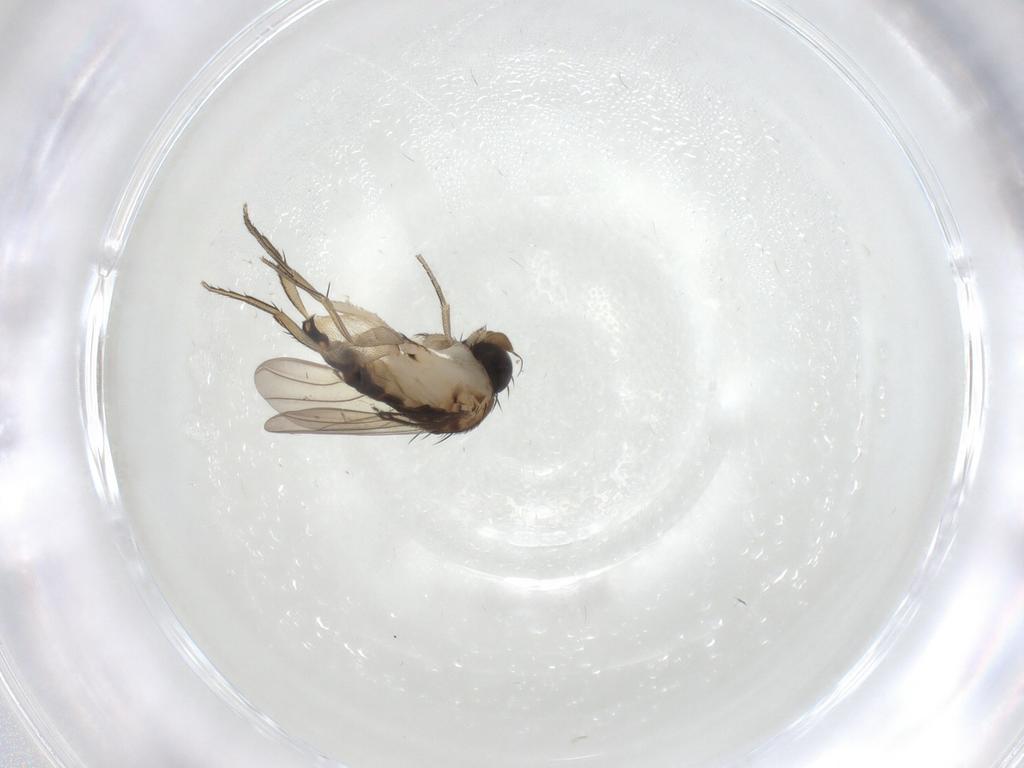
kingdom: Animalia
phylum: Arthropoda
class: Insecta
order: Diptera
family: Phoridae
